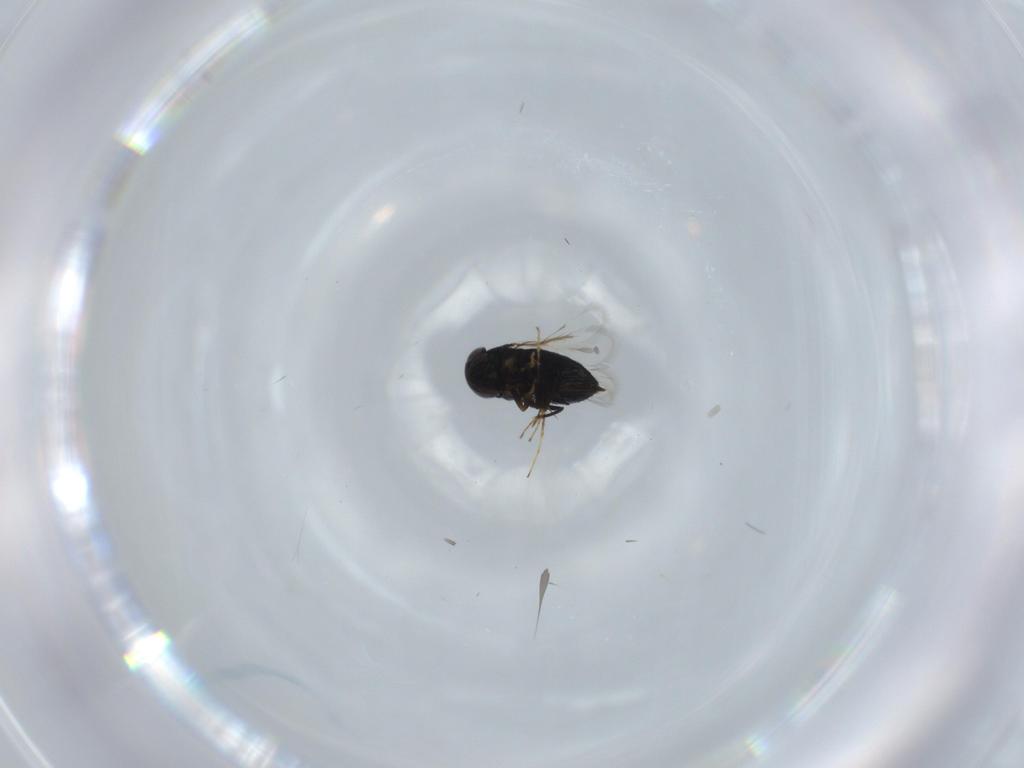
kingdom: Animalia
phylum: Arthropoda
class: Insecta
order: Hymenoptera
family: Signiphoridae
